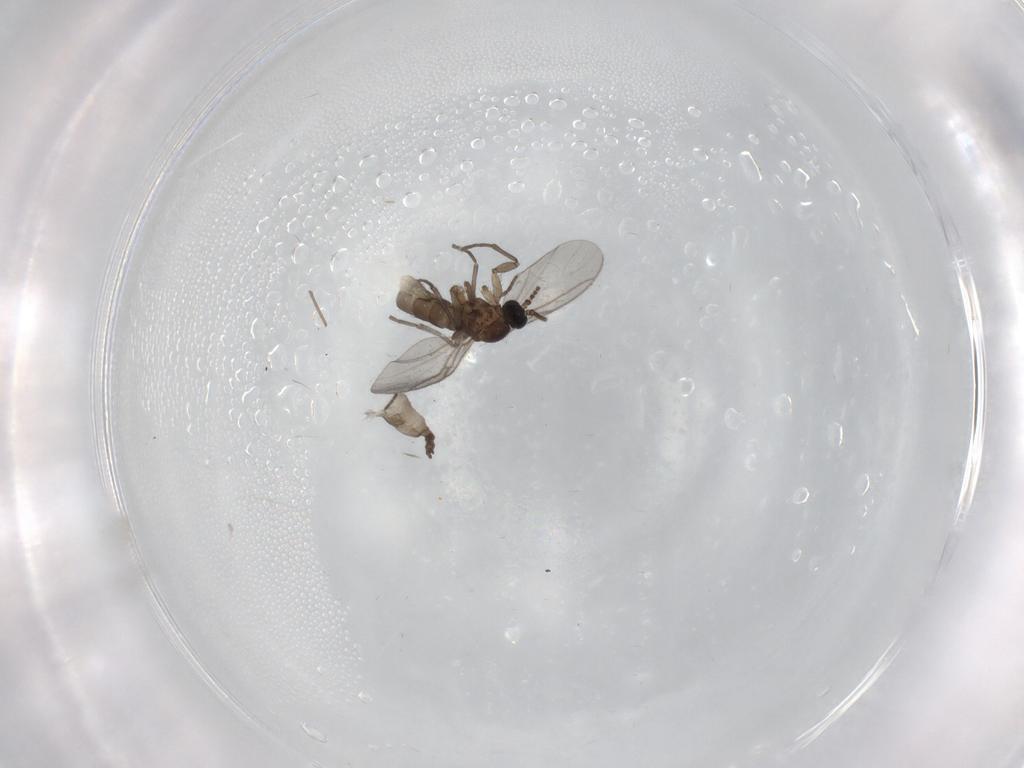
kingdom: Animalia
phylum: Arthropoda
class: Insecta
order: Diptera
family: Sciaridae
